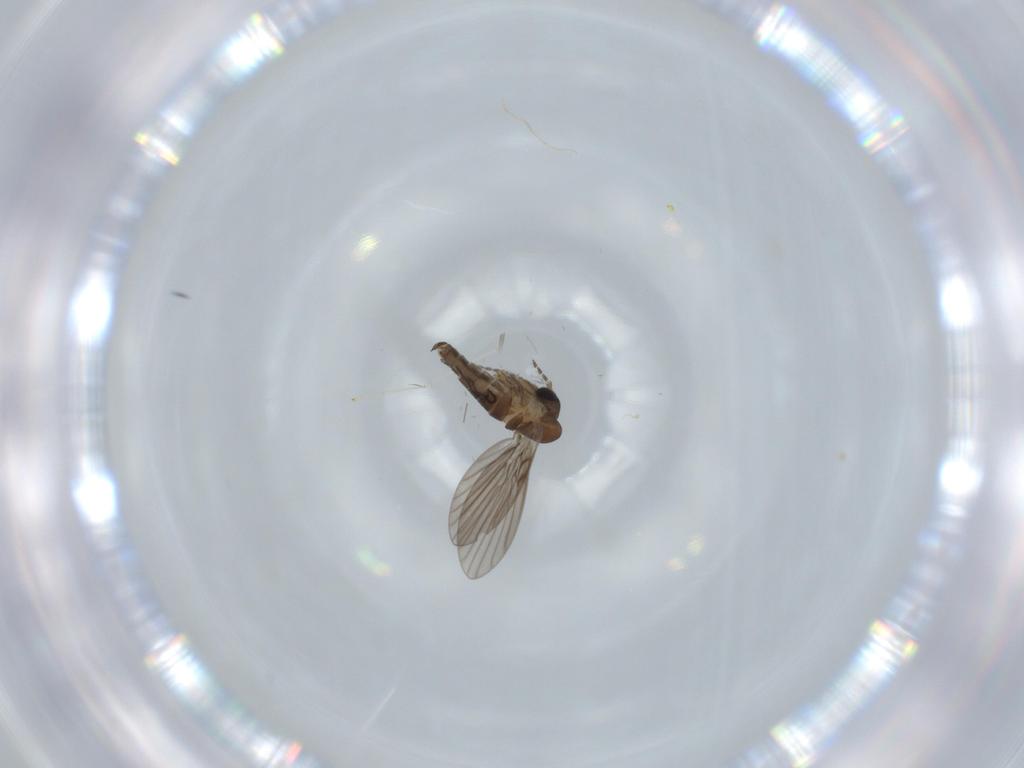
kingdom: Animalia
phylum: Arthropoda
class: Insecta
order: Diptera
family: Cecidomyiidae
